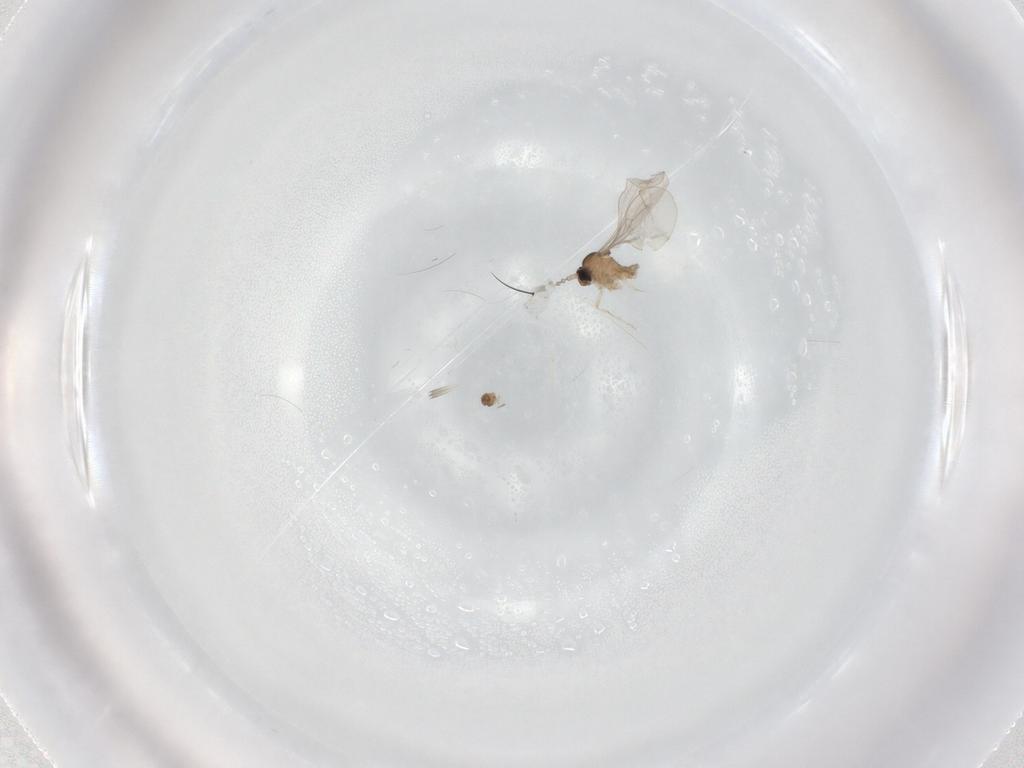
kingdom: Animalia
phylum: Arthropoda
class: Insecta
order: Diptera
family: Cecidomyiidae
